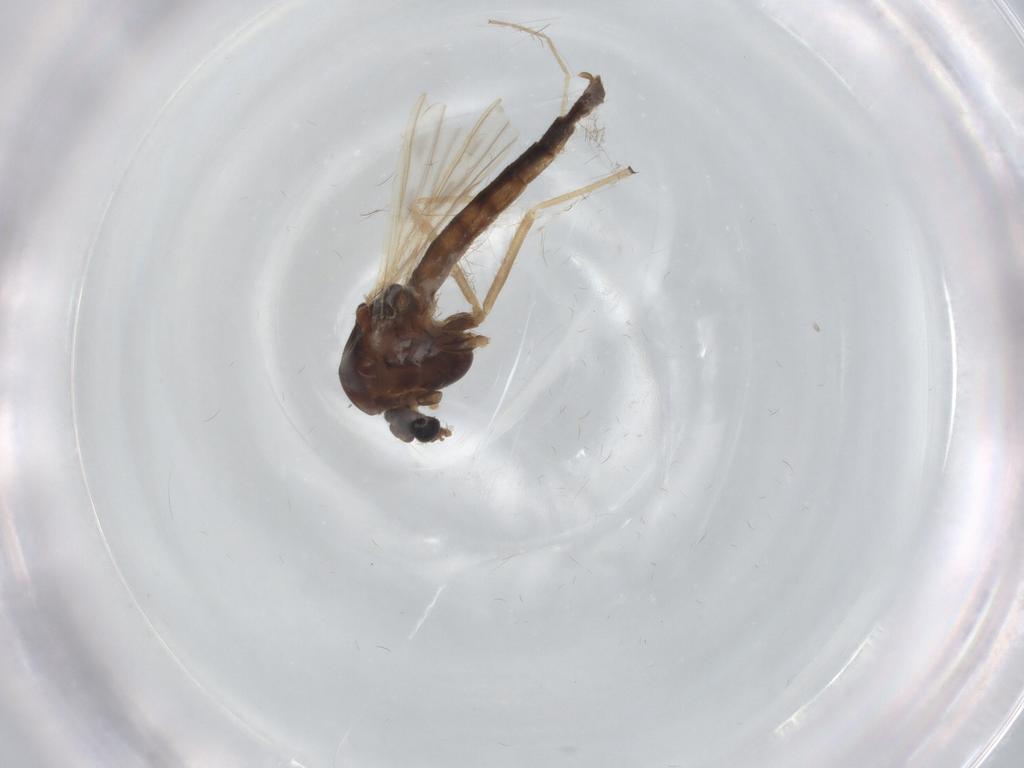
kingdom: Animalia
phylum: Arthropoda
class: Insecta
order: Diptera
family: Chironomidae
